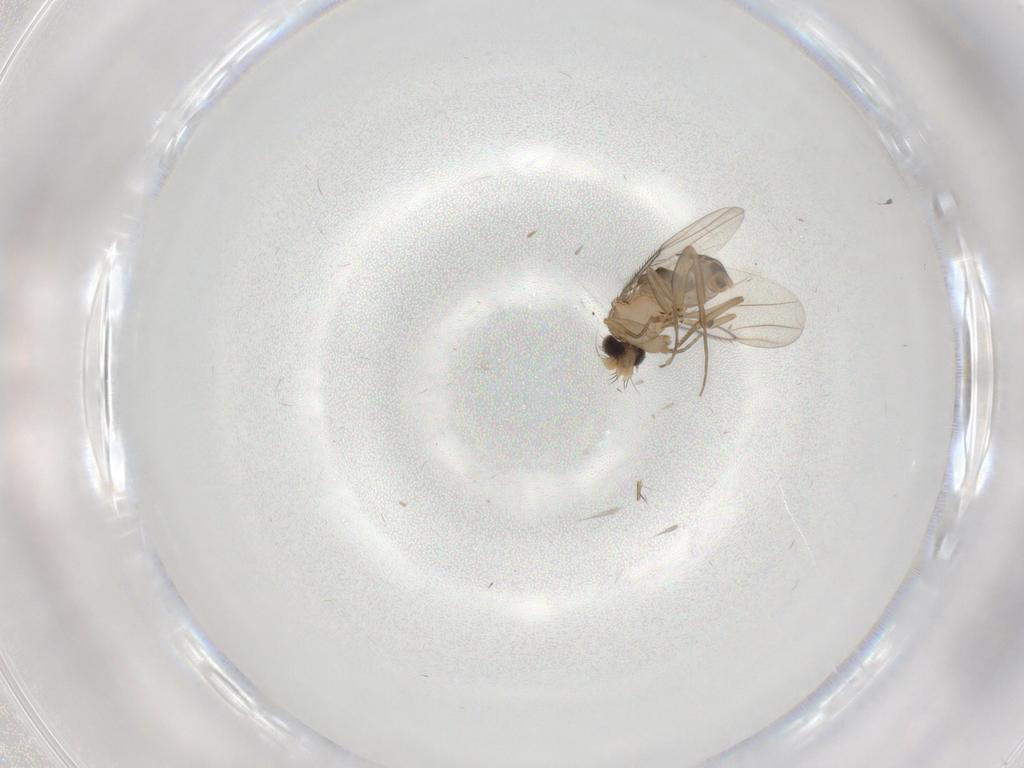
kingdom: Animalia
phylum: Arthropoda
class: Insecta
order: Diptera
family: Phoridae
